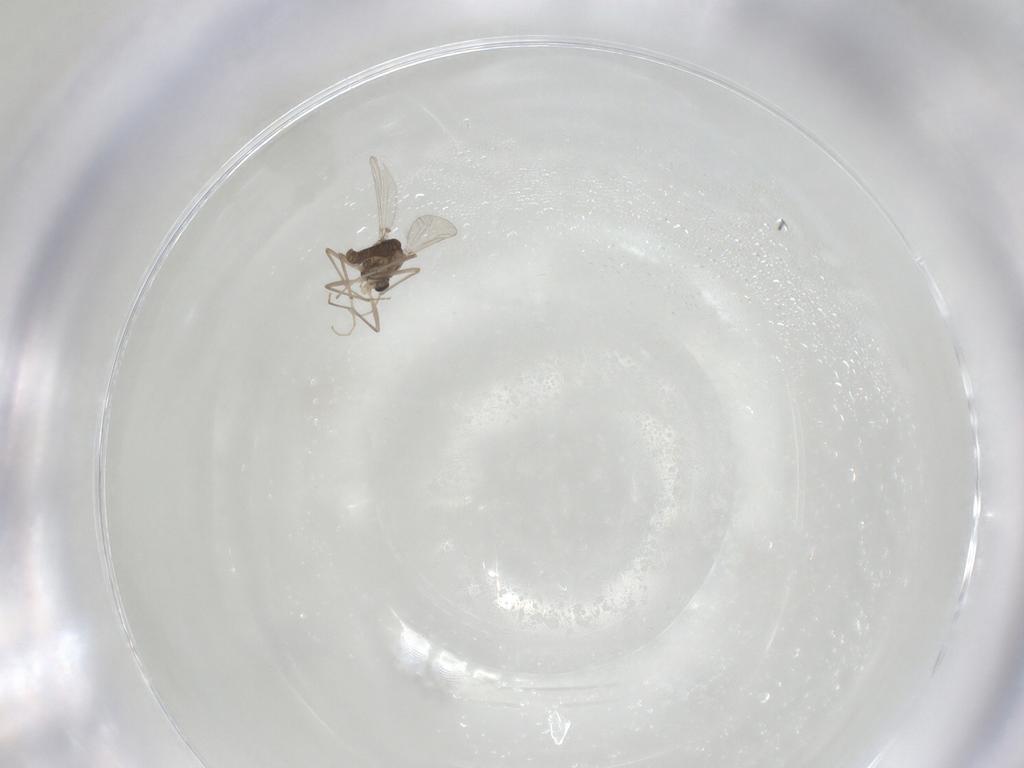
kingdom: Animalia
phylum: Arthropoda
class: Insecta
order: Diptera
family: Chironomidae
